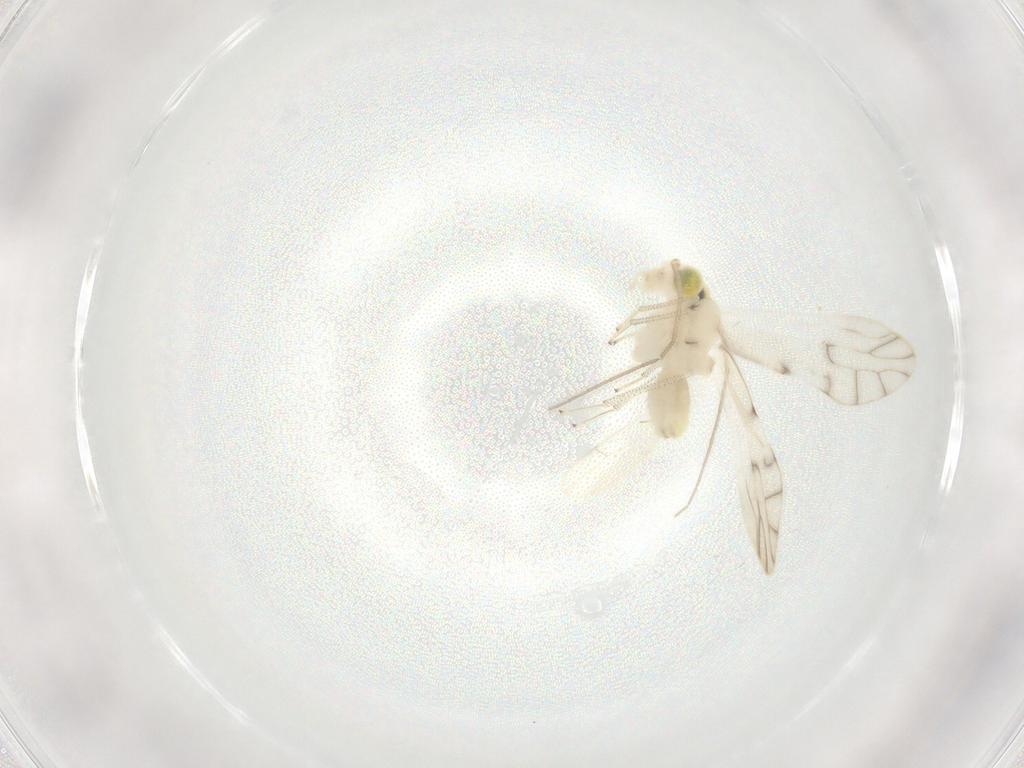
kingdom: Animalia
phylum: Arthropoda
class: Insecta
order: Psocodea
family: Caeciliusidae
